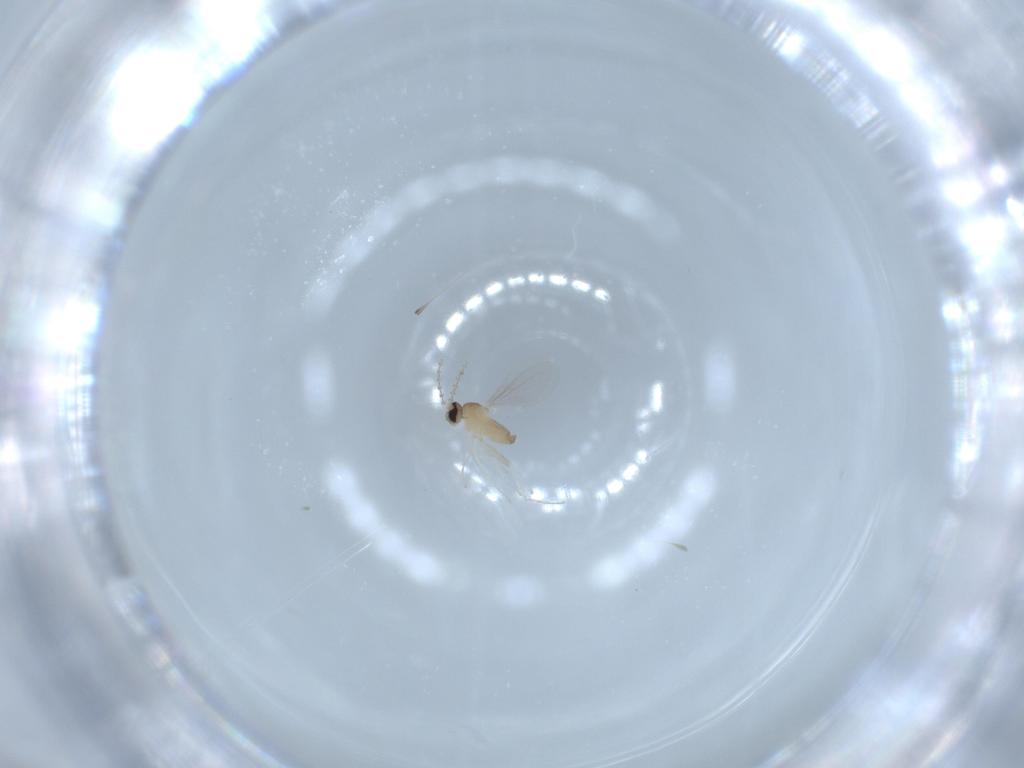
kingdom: Animalia
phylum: Arthropoda
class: Insecta
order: Diptera
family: Cecidomyiidae
